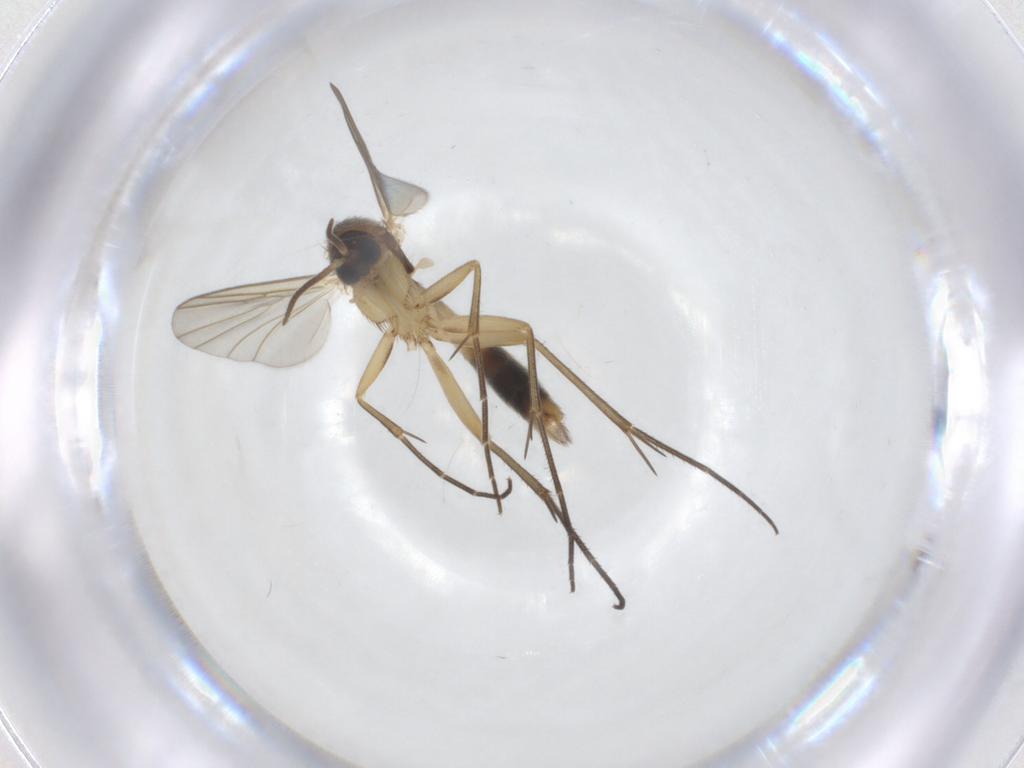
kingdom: Animalia
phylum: Arthropoda
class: Insecta
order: Diptera
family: Mycetophilidae
